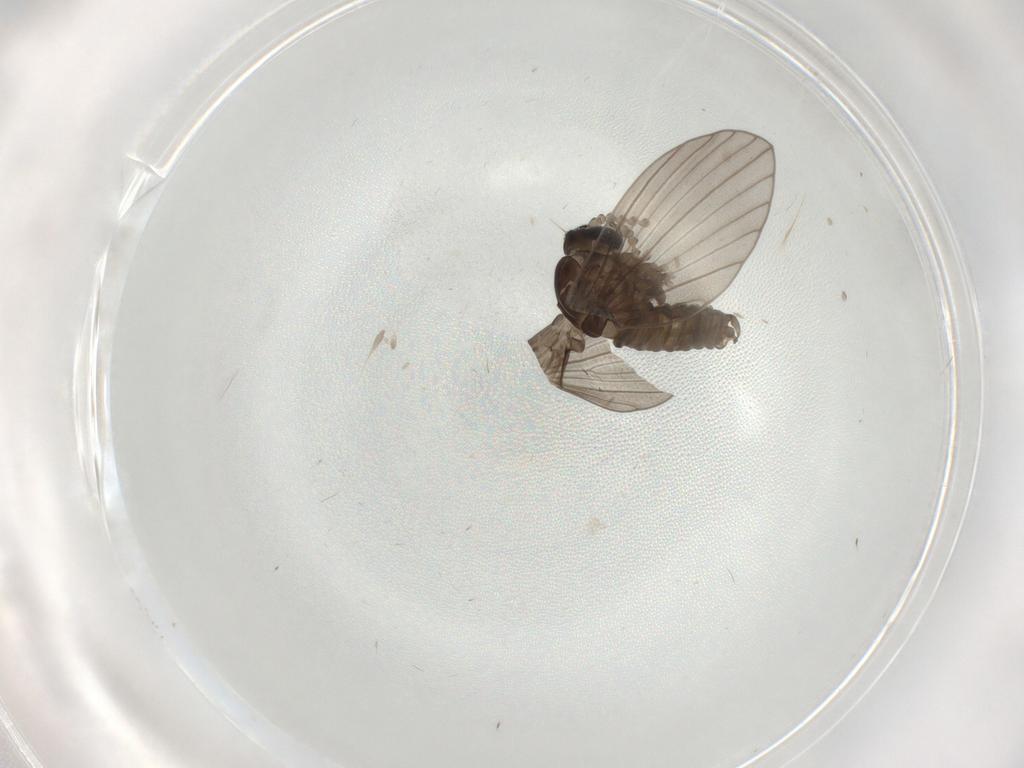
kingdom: Animalia
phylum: Arthropoda
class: Insecta
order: Diptera
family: Psychodidae
